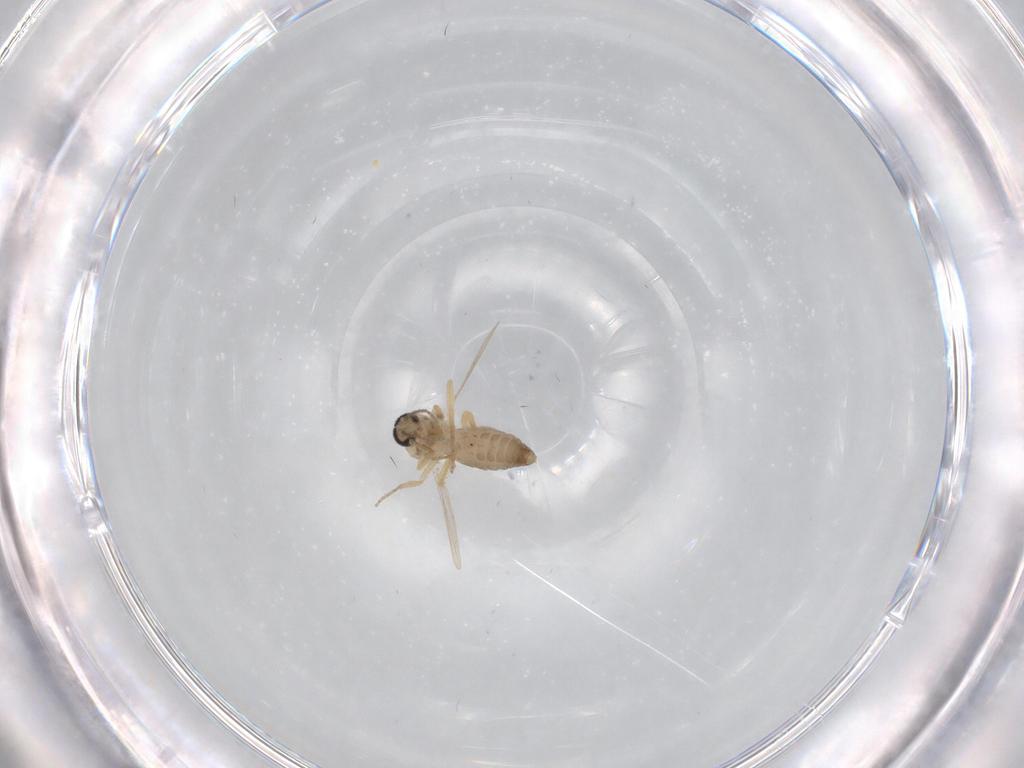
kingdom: Animalia
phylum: Arthropoda
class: Insecta
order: Diptera
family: Ceratopogonidae
